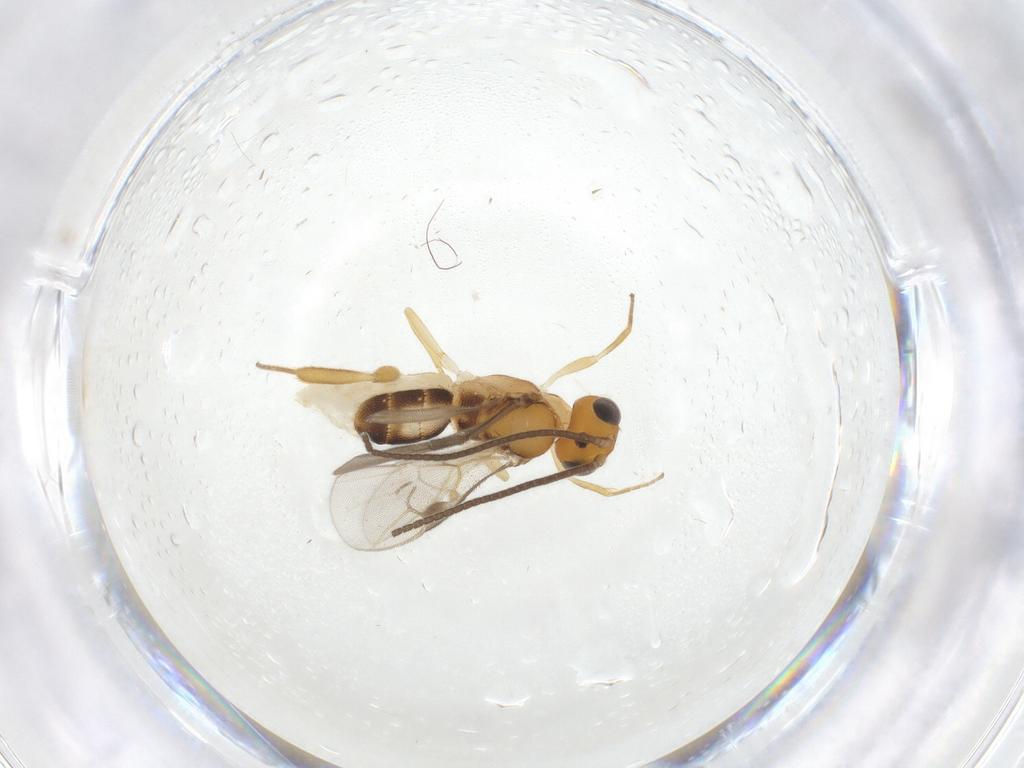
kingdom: Animalia
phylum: Arthropoda
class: Insecta
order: Hymenoptera
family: Braconidae
